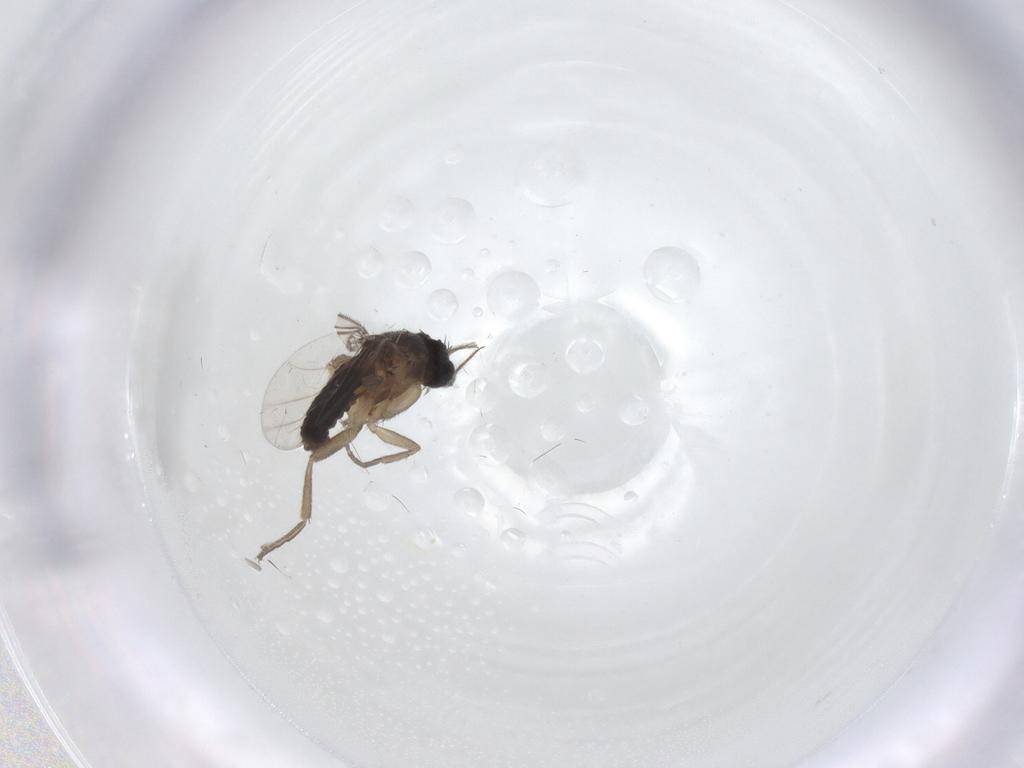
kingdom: Animalia
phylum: Arthropoda
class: Insecta
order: Diptera
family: Phoridae
